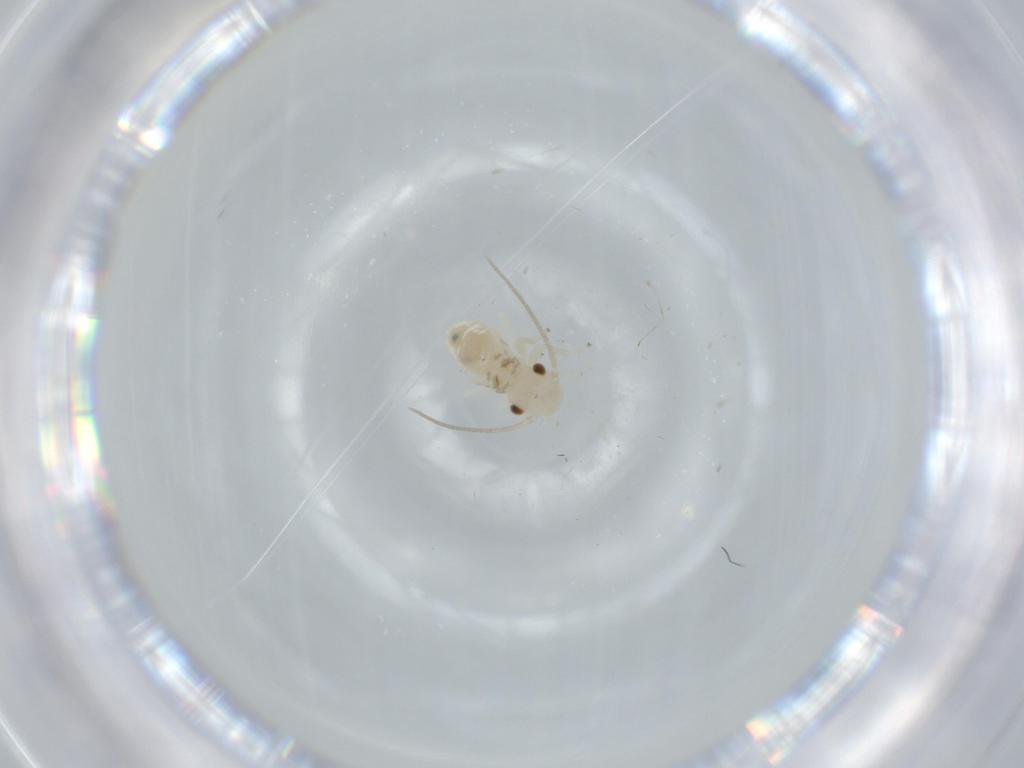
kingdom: Animalia
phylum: Arthropoda
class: Insecta
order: Psocodea
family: Caeciliusidae
